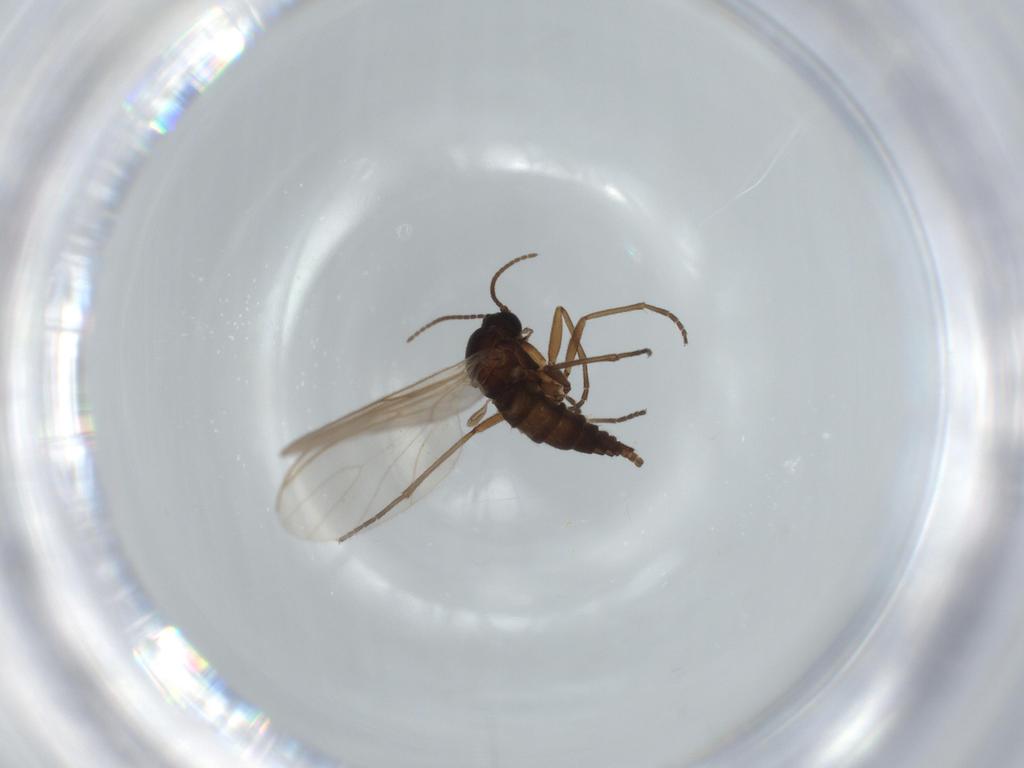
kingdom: Animalia
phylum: Arthropoda
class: Insecta
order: Diptera
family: Sciaridae
